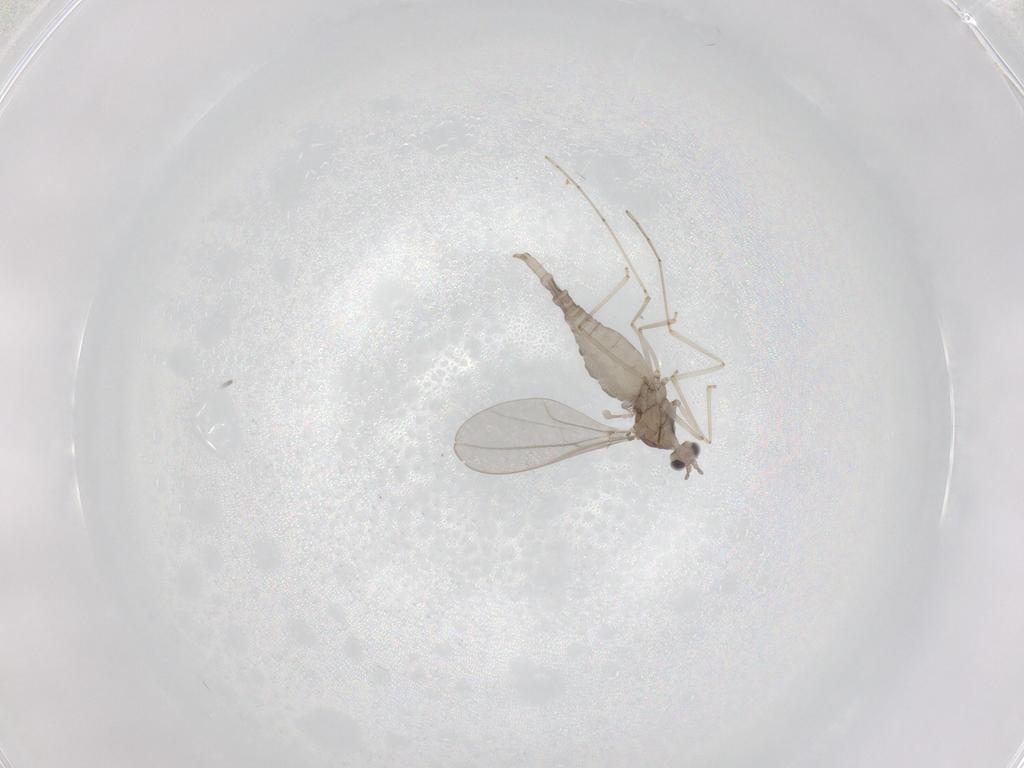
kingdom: Animalia
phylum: Arthropoda
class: Insecta
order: Diptera
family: Cecidomyiidae
